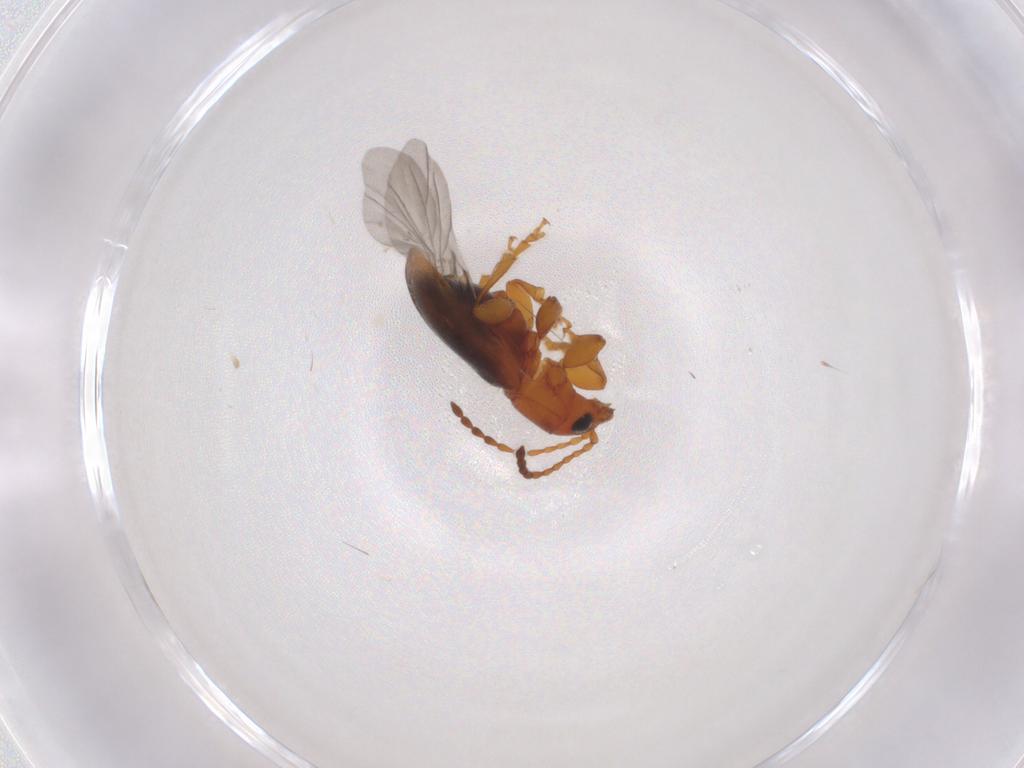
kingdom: Animalia
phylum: Arthropoda
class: Insecta
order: Coleoptera
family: Chrysomelidae
